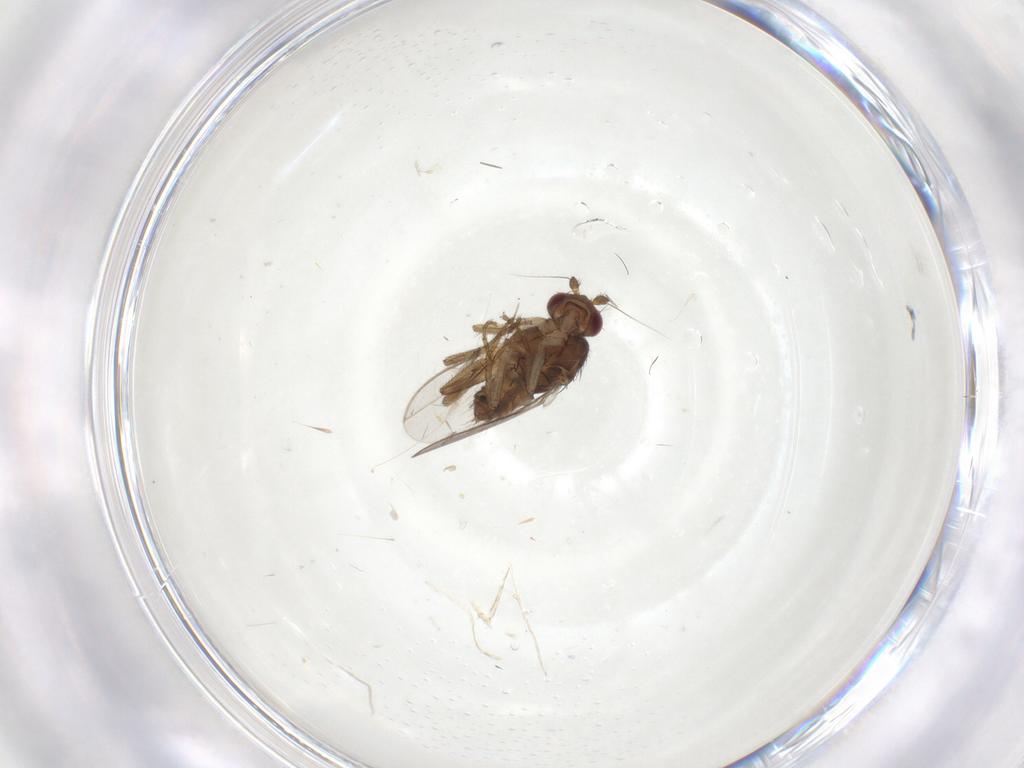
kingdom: Animalia
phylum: Arthropoda
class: Insecta
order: Diptera
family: Sphaeroceridae
